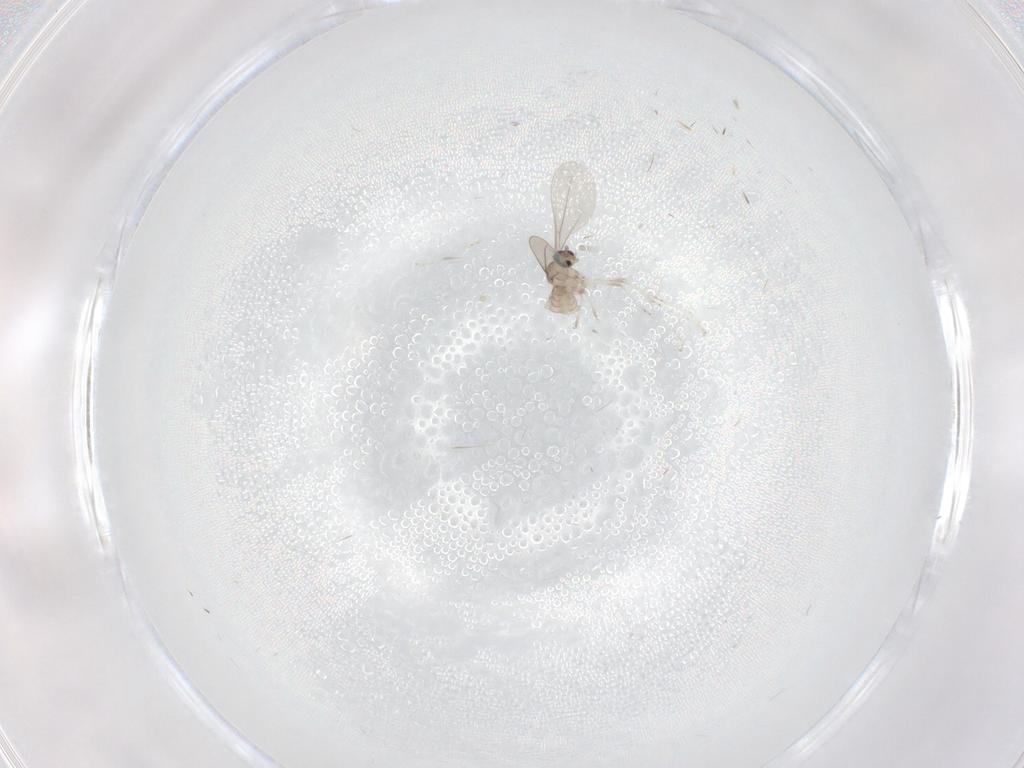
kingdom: Animalia
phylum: Arthropoda
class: Insecta
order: Diptera
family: Cecidomyiidae
